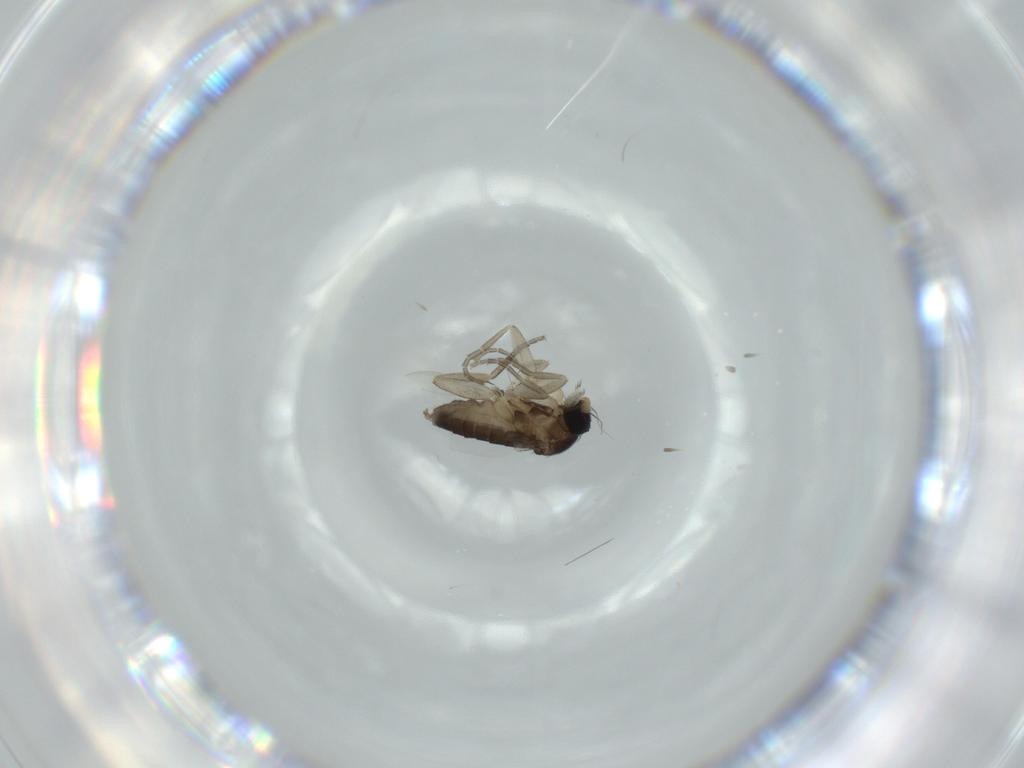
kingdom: Animalia
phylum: Arthropoda
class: Insecta
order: Diptera
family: Phoridae
